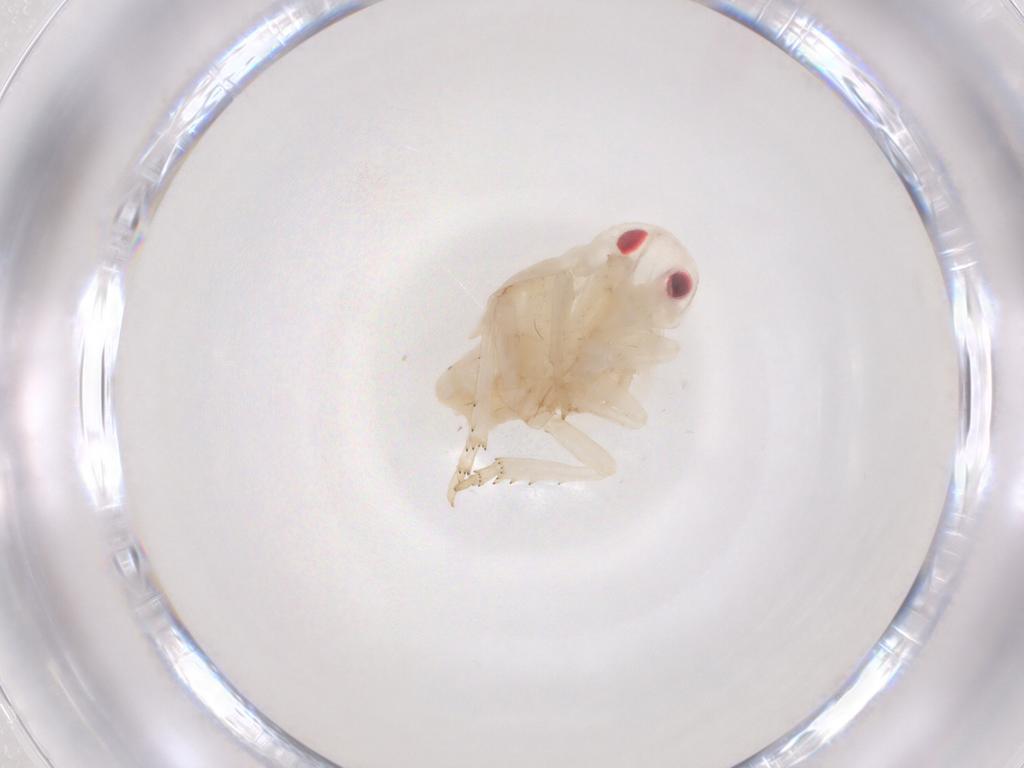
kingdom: Animalia
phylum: Arthropoda
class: Insecta
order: Hemiptera
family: Flatidae
